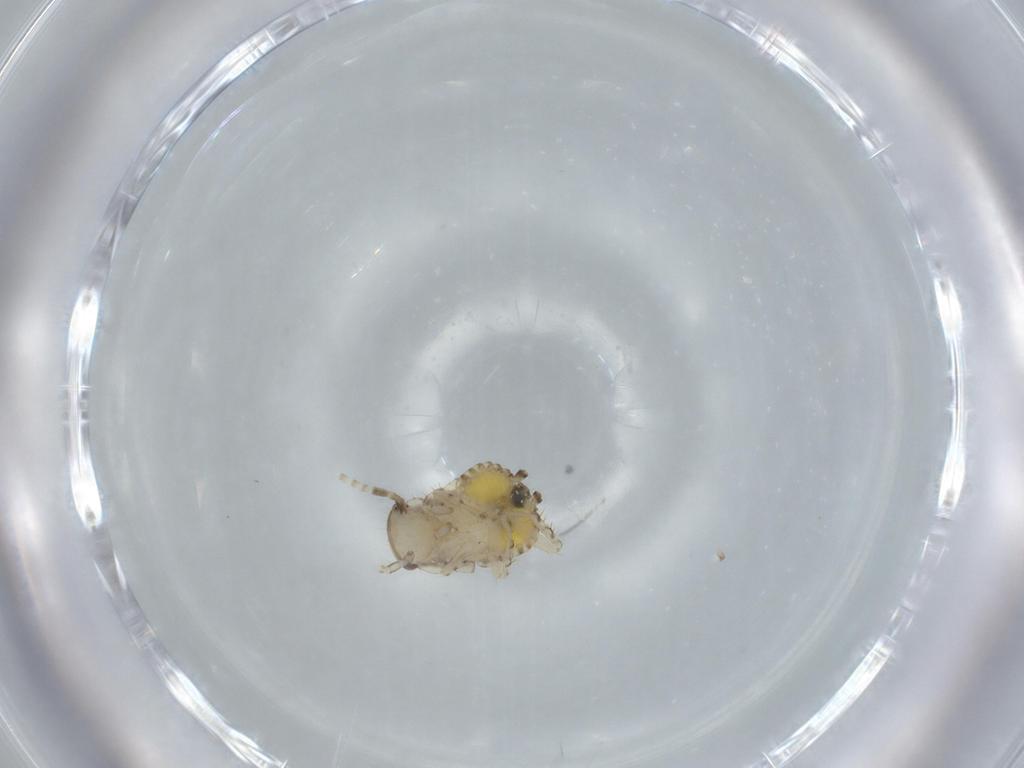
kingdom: Animalia
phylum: Arthropoda
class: Insecta
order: Blattodea
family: Ectobiidae
